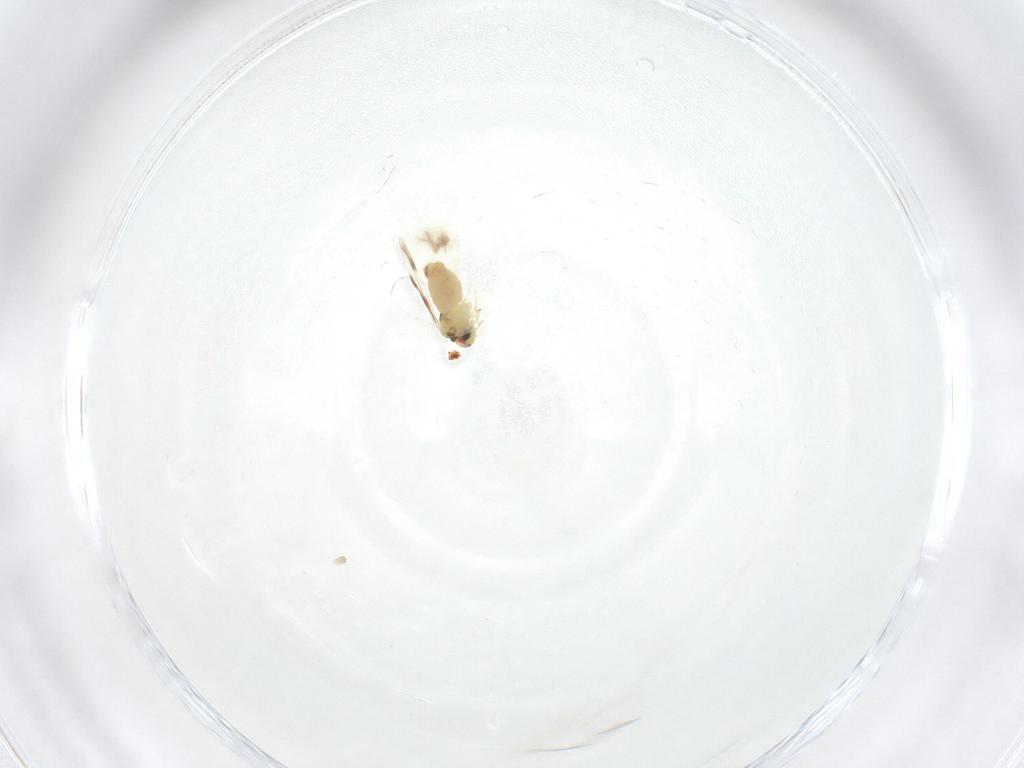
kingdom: Animalia
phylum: Arthropoda
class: Insecta
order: Hemiptera
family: Aleyrodidae
